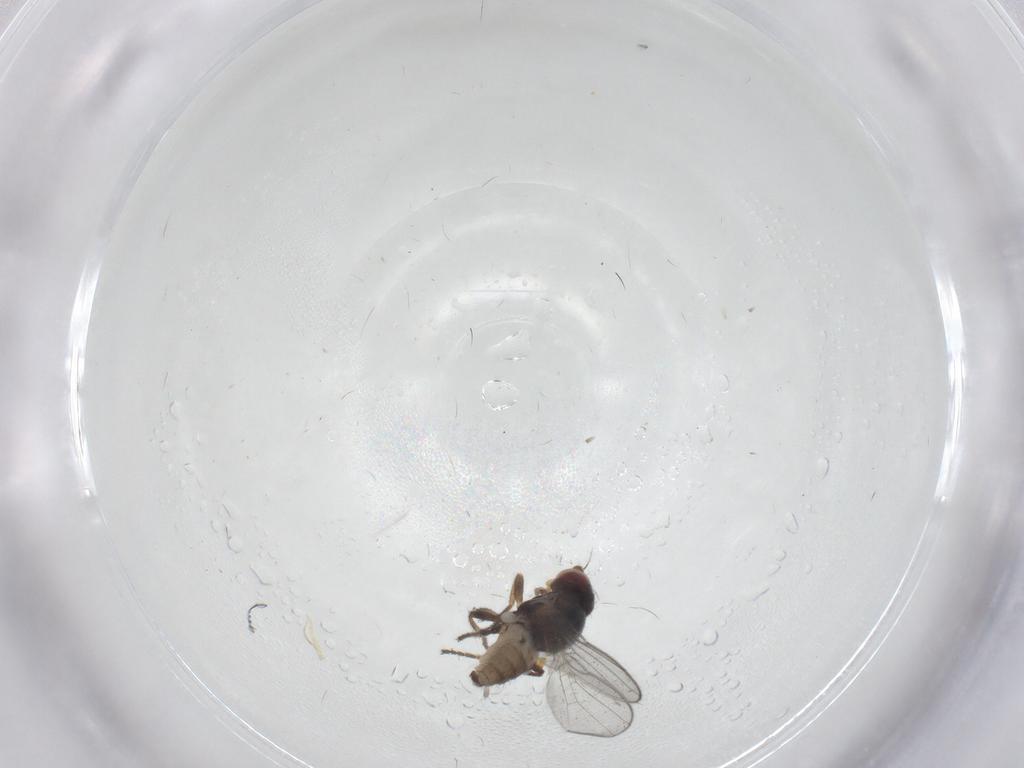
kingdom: Animalia
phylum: Arthropoda
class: Insecta
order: Diptera
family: Chloropidae
